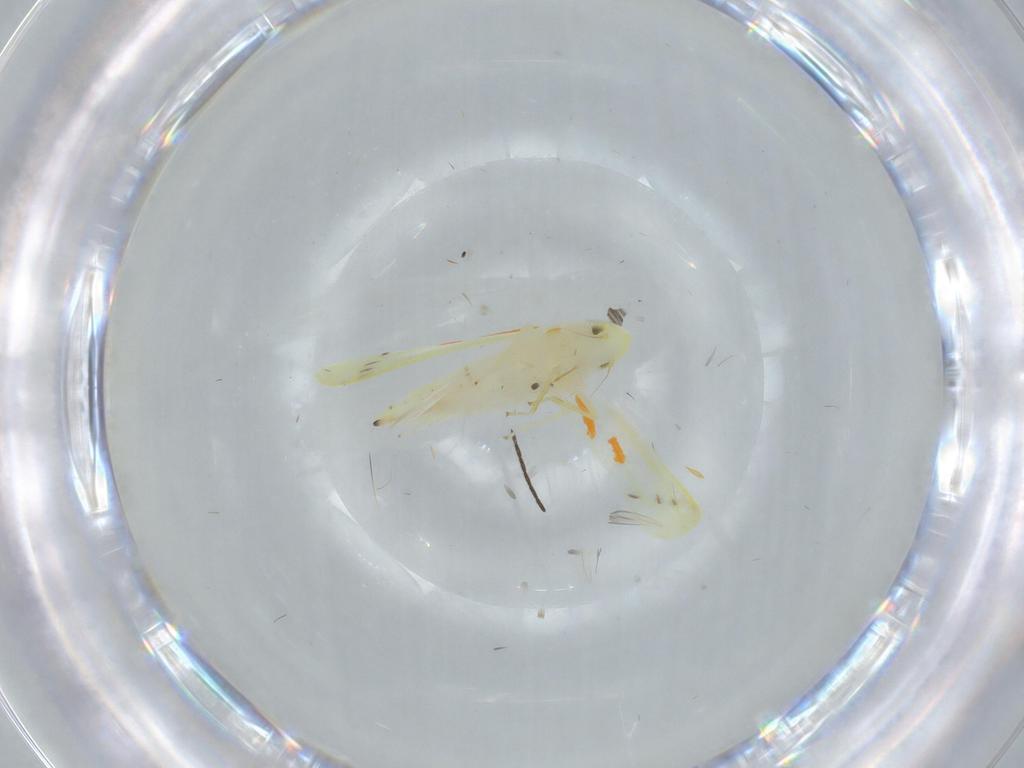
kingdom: Animalia
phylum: Arthropoda
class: Insecta
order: Hemiptera
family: Cicadellidae
